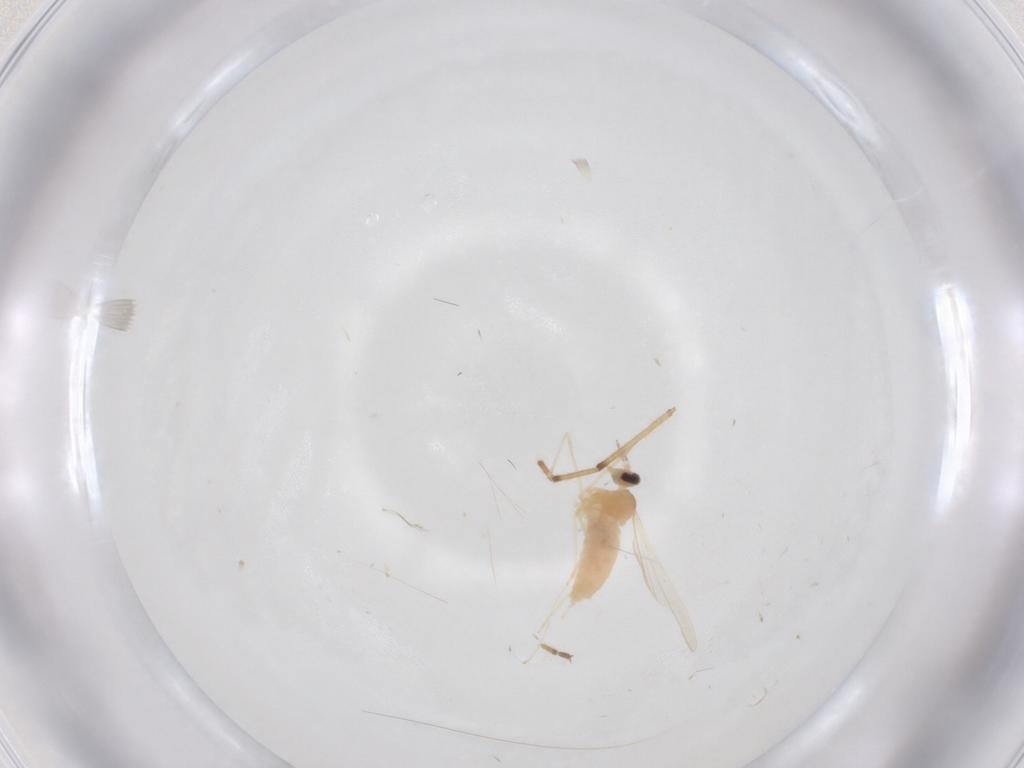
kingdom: Animalia
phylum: Arthropoda
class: Insecta
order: Diptera
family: Cecidomyiidae
